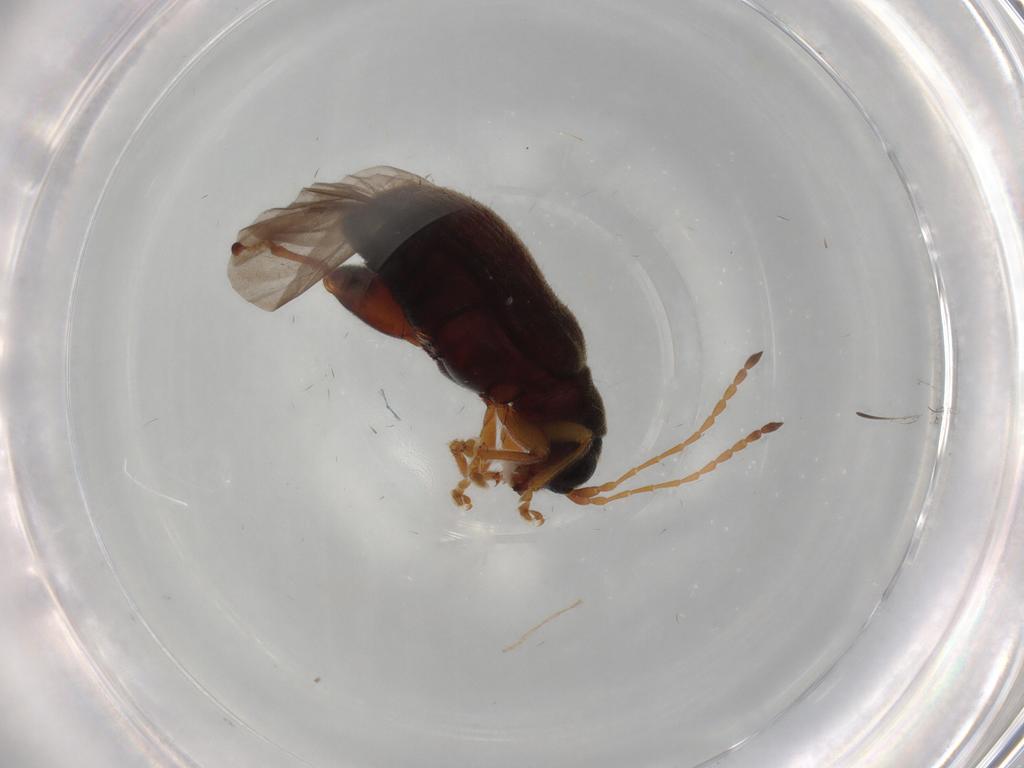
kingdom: Animalia
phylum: Arthropoda
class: Insecta
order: Coleoptera
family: Chrysomelidae
